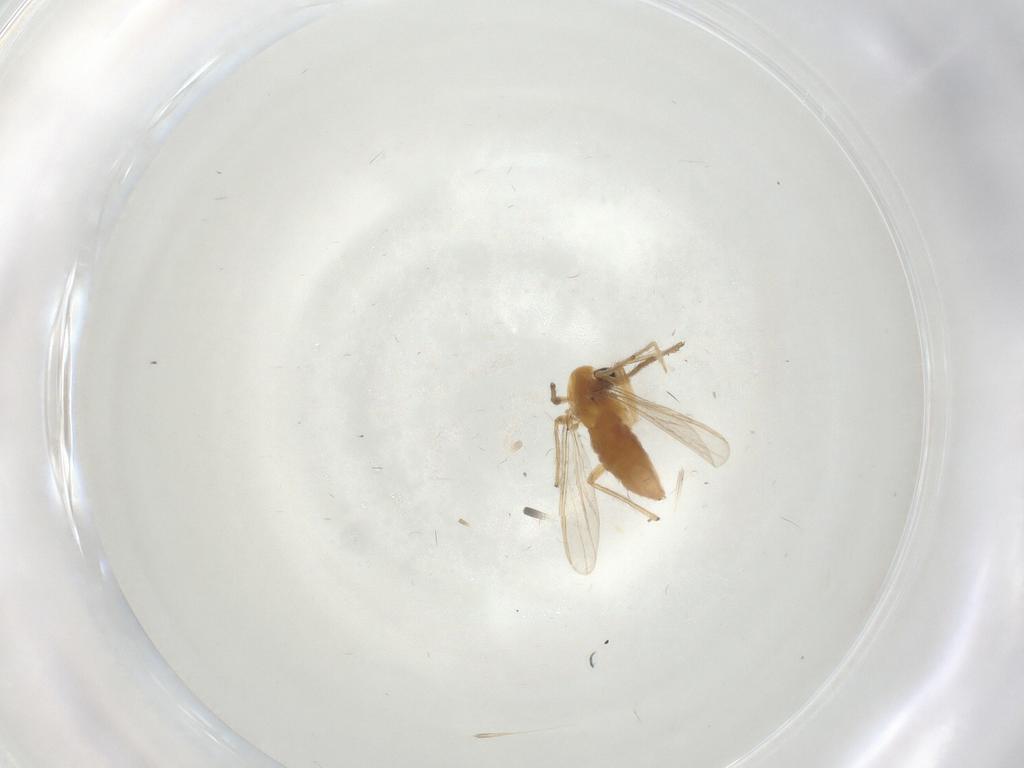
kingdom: Animalia
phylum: Arthropoda
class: Insecta
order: Diptera
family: Chironomidae
